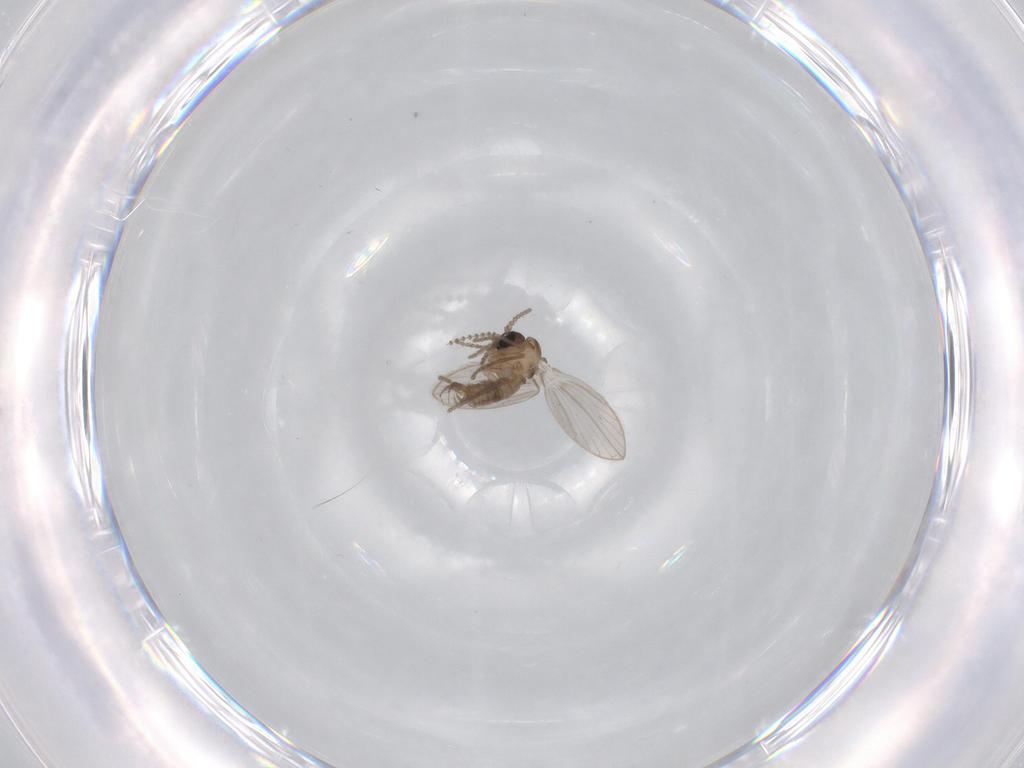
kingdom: Animalia
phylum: Arthropoda
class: Insecta
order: Diptera
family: Psychodidae
